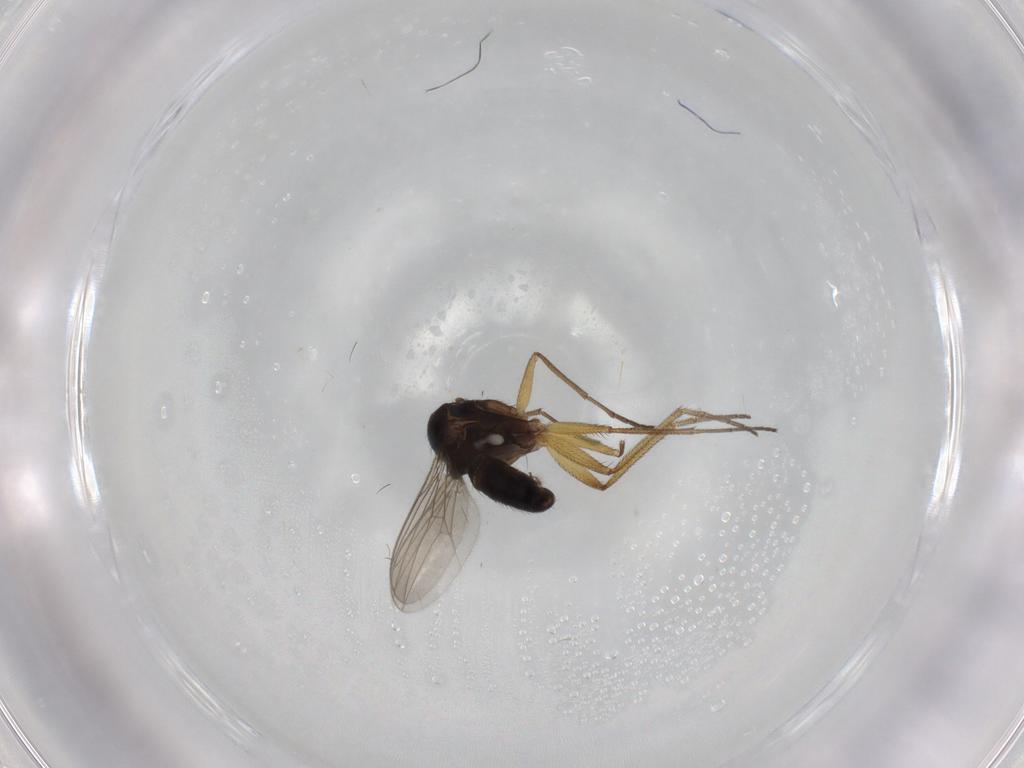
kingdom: Animalia
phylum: Arthropoda
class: Insecta
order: Diptera
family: Dolichopodidae
